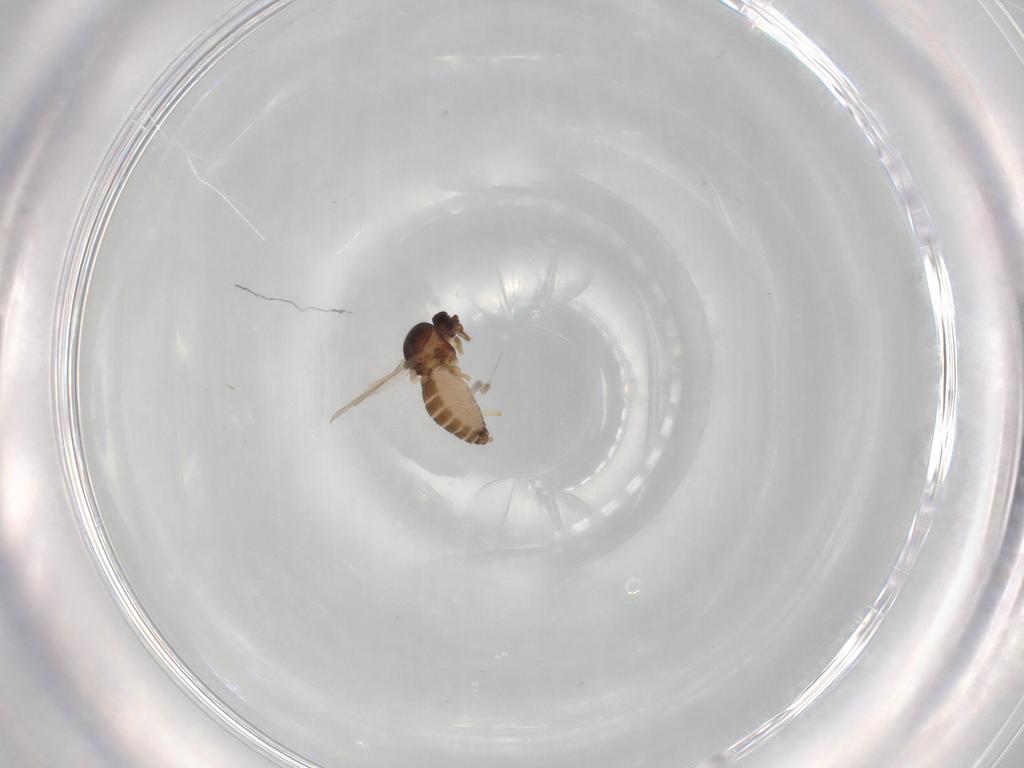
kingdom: Animalia
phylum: Arthropoda
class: Insecta
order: Diptera
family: Ceratopogonidae
